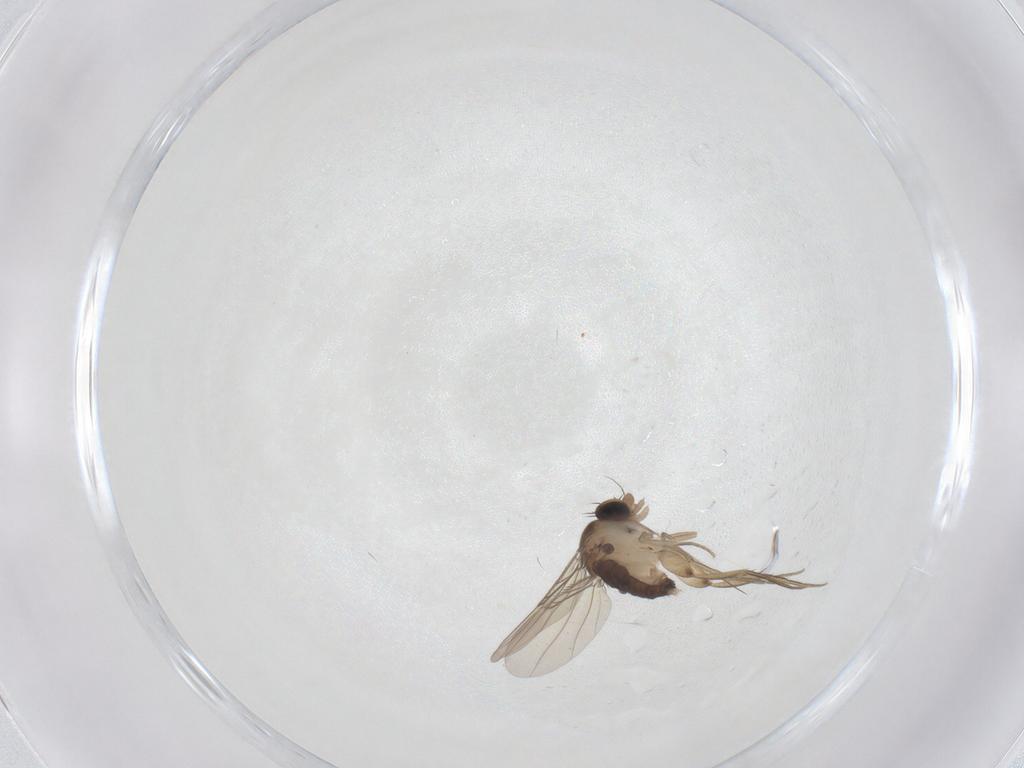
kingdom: Animalia
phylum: Arthropoda
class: Insecta
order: Diptera
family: Phoridae
